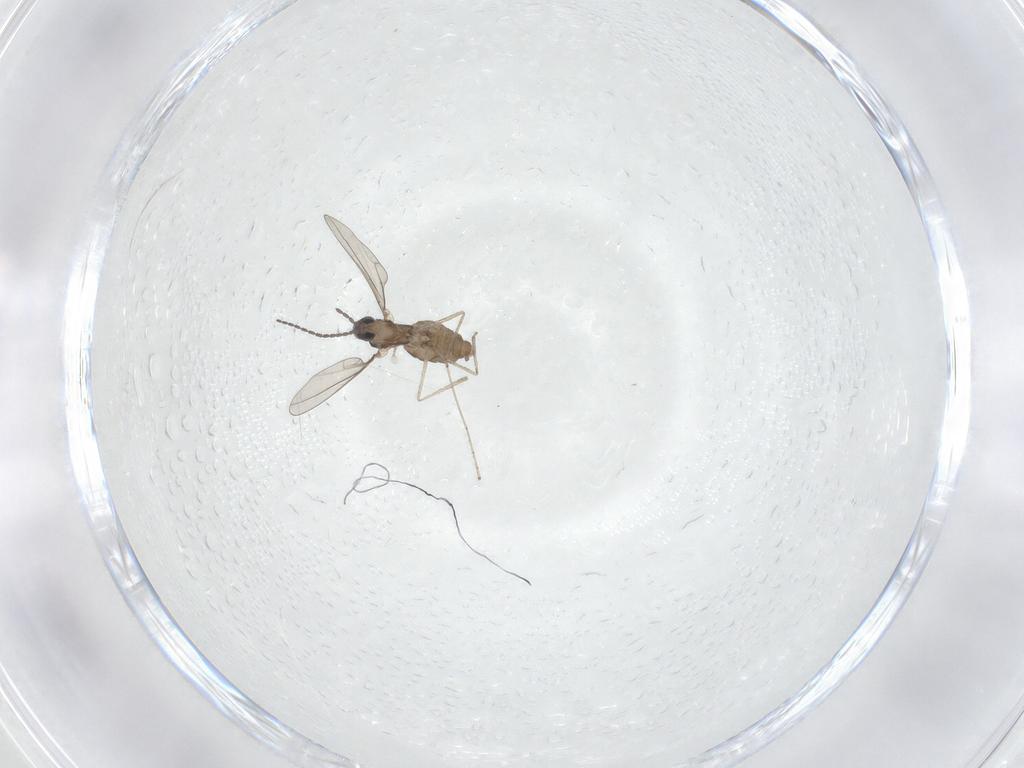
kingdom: Animalia
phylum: Arthropoda
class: Insecta
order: Diptera
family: Cecidomyiidae
